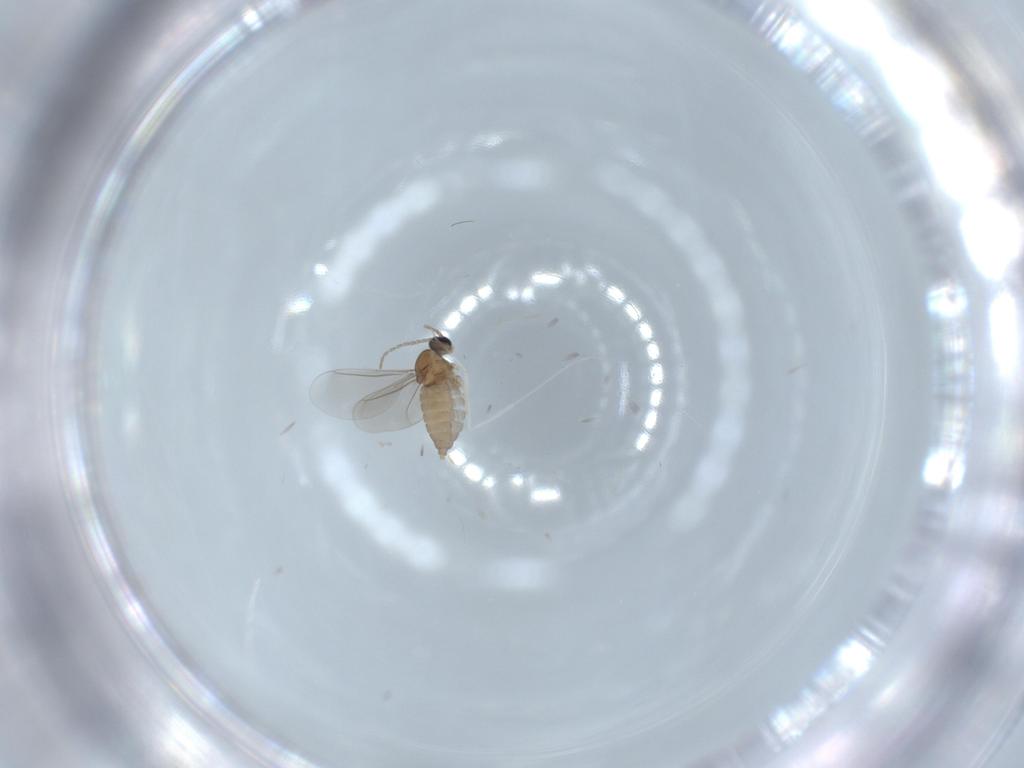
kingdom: Animalia
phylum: Arthropoda
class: Insecta
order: Diptera
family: Cecidomyiidae
